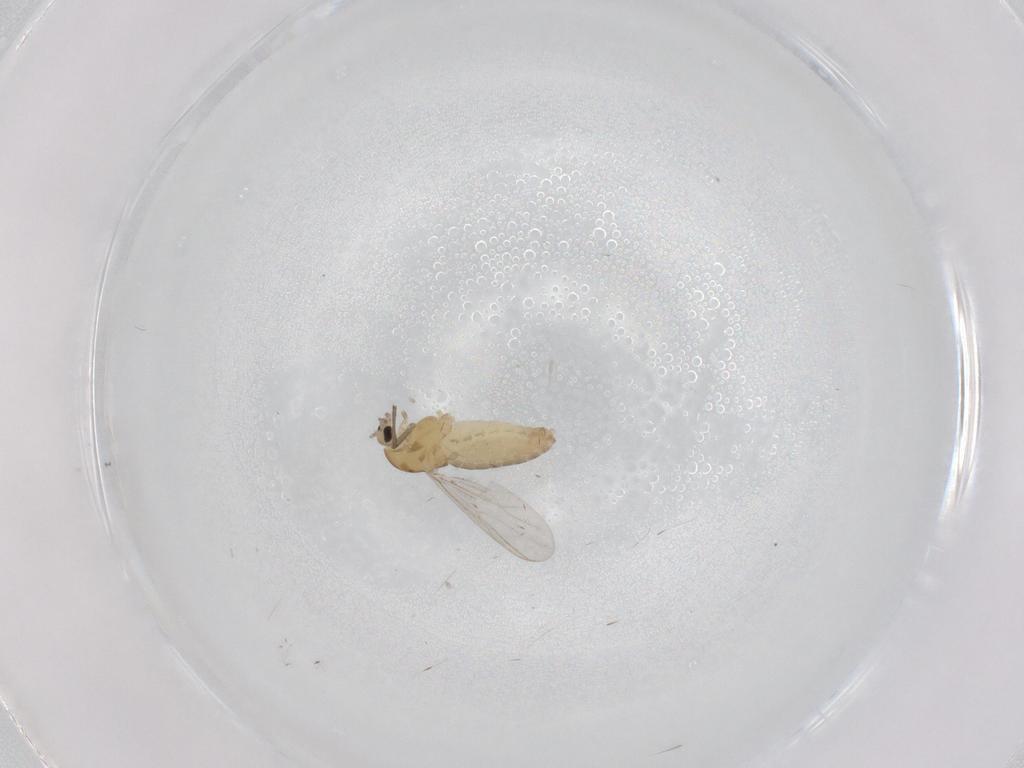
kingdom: Animalia
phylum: Arthropoda
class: Insecta
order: Diptera
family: Chironomidae
